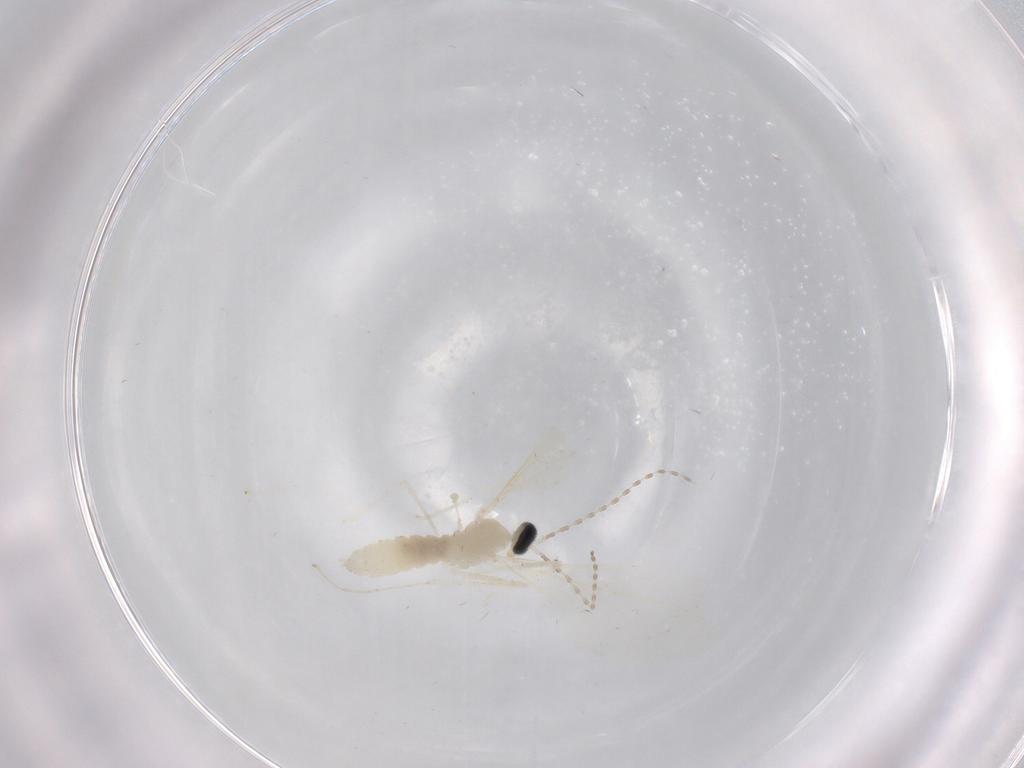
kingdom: Animalia
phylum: Arthropoda
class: Insecta
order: Diptera
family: Cecidomyiidae
